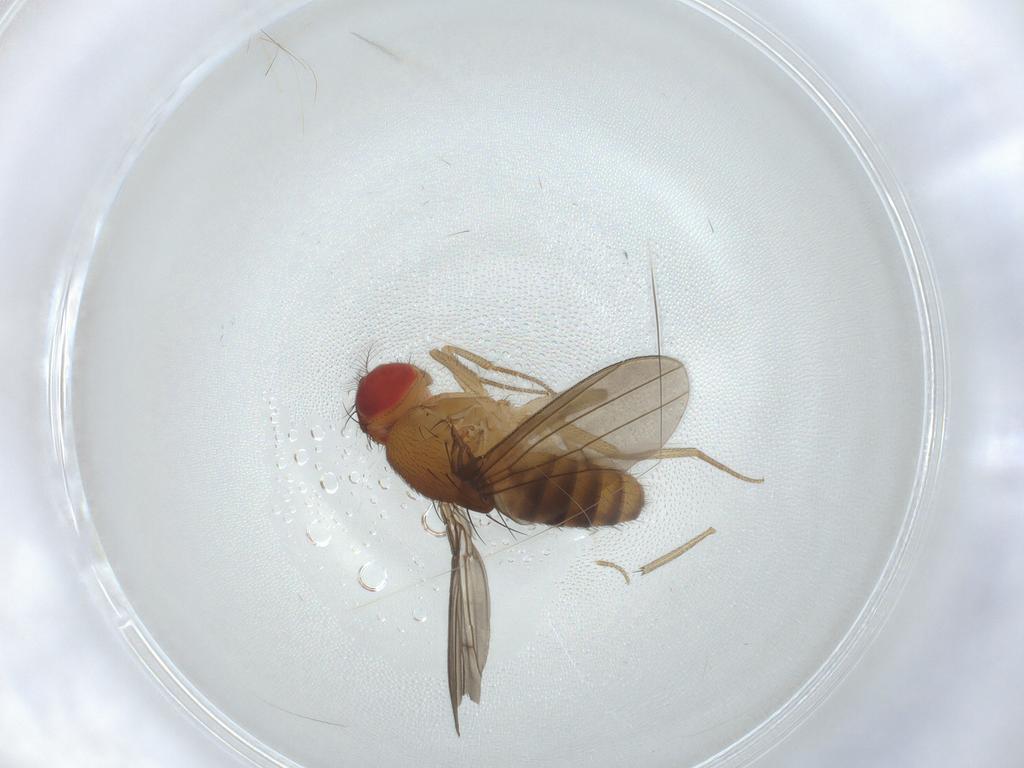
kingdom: Animalia
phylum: Arthropoda
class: Insecta
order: Diptera
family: Drosophilidae
